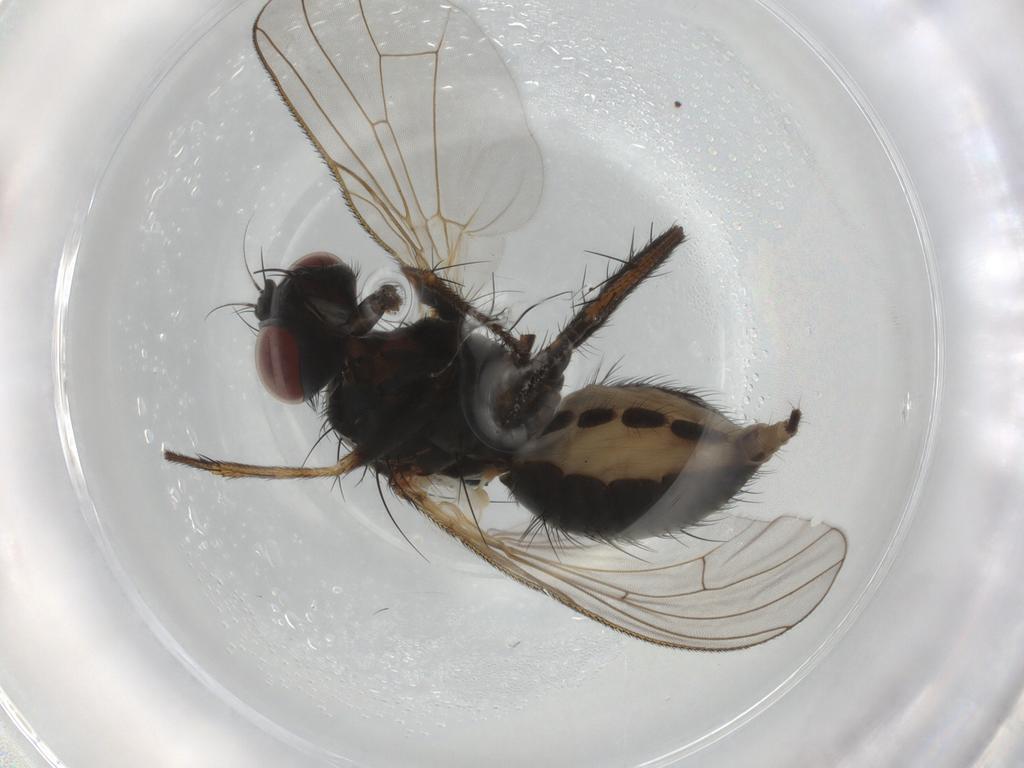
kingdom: Animalia
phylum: Arthropoda
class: Insecta
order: Diptera
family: Muscidae
